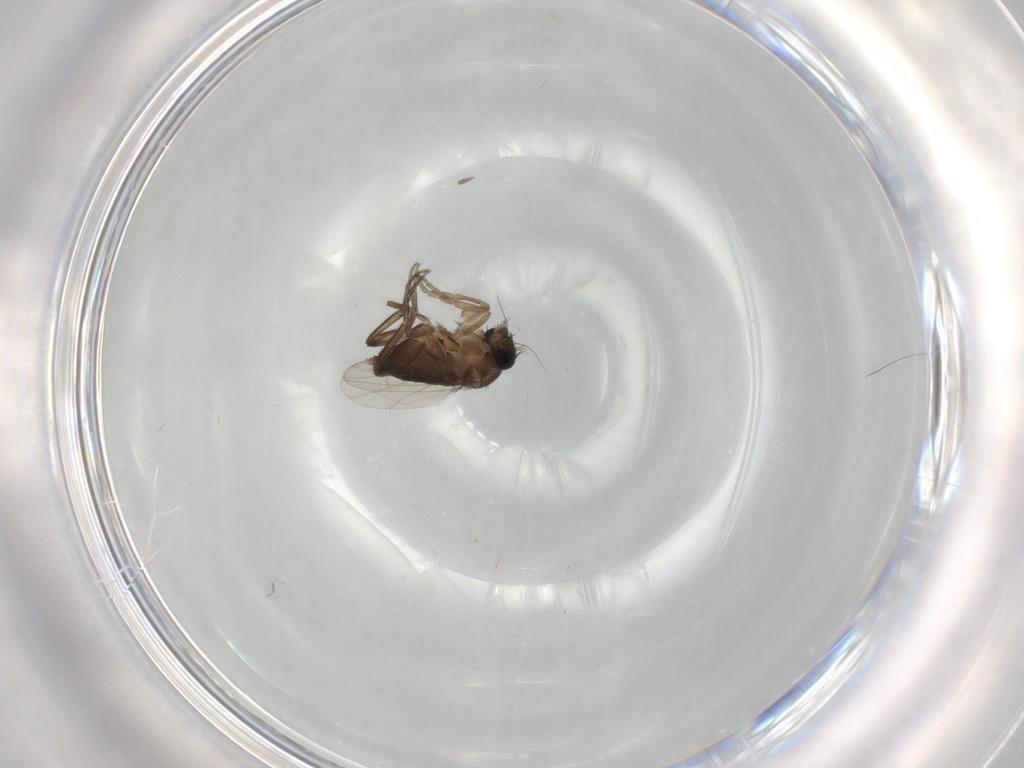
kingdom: Animalia
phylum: Arthropoda
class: Insecta
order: Diptera
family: Phoridae
